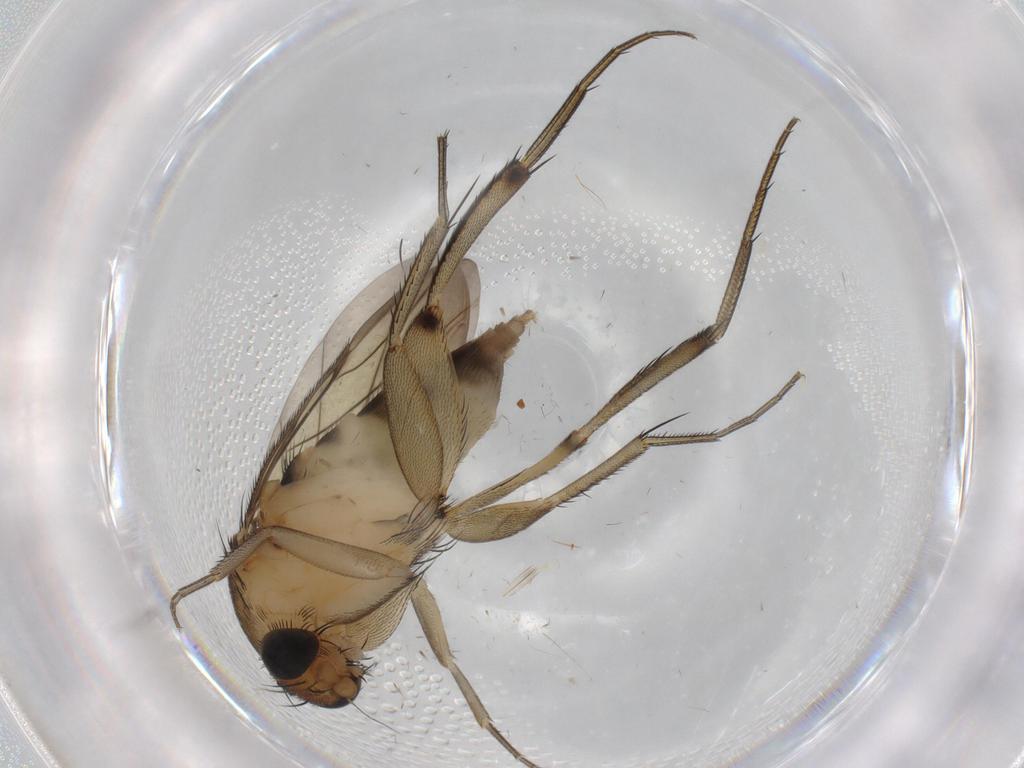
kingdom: Animalia
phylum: Arthropoda
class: Insecta
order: Diptera
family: Phoridae
